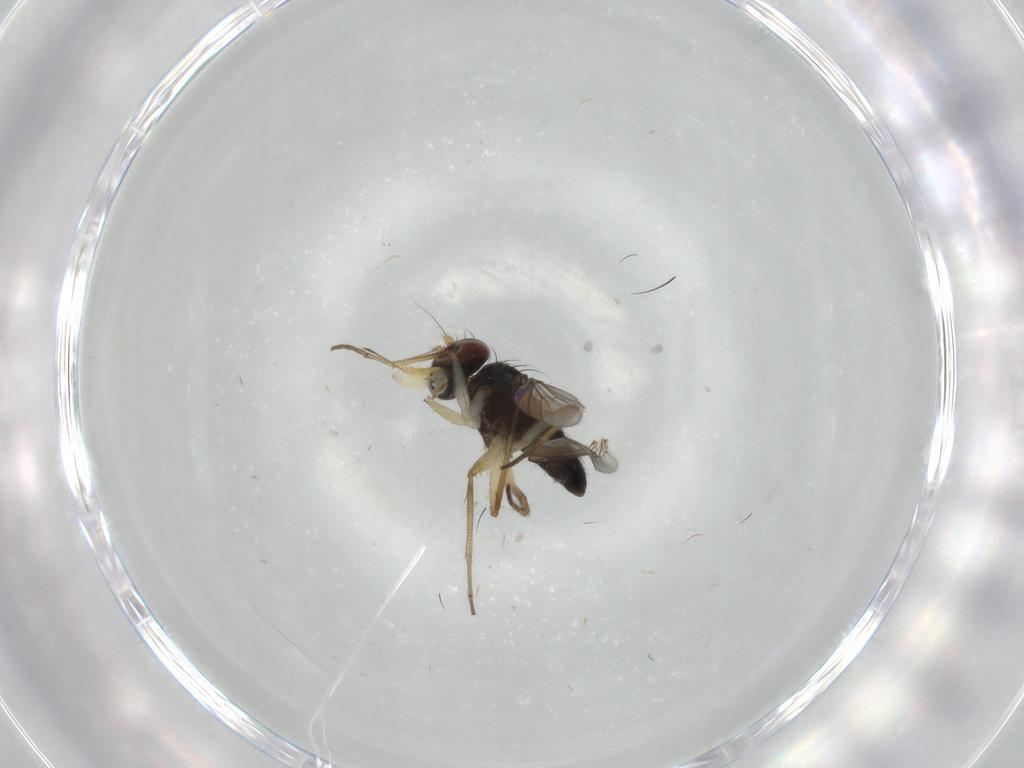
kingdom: Animalia
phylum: Arthropoda
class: Insecta
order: Diptera
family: Dolichopodidae
